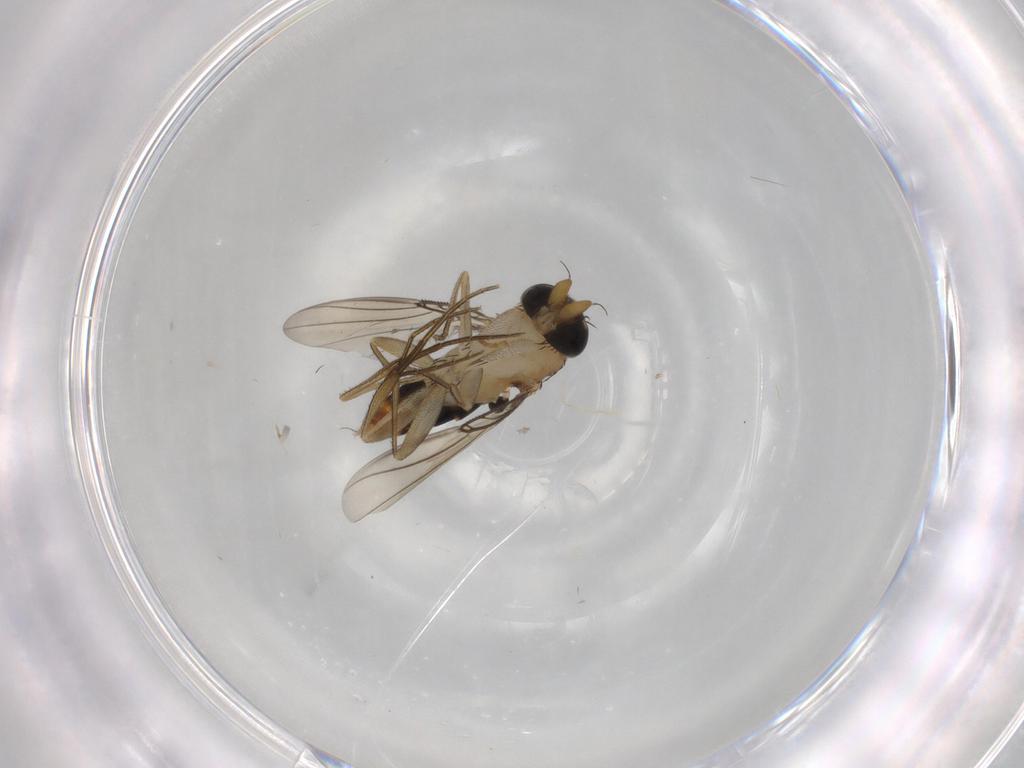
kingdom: Animalia
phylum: Arthropoda
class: Insecta
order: Diptera
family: Phoridae
